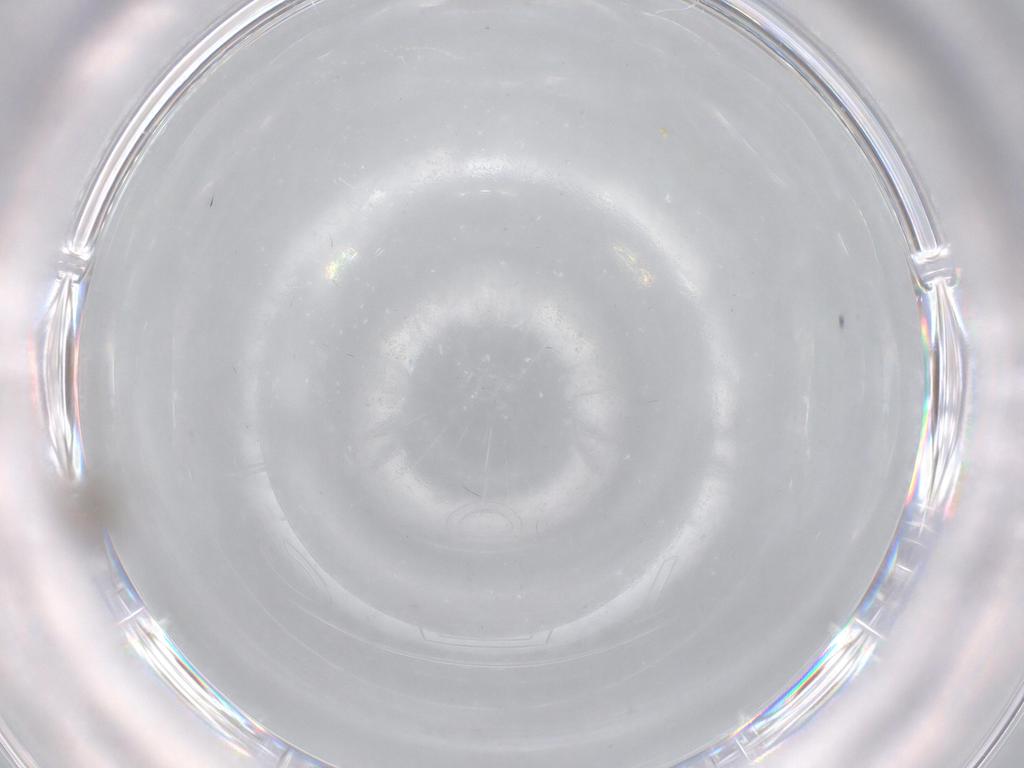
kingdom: Animalia
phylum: Arthropoda
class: Insecta
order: Diptera
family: Cecidomyiidae
